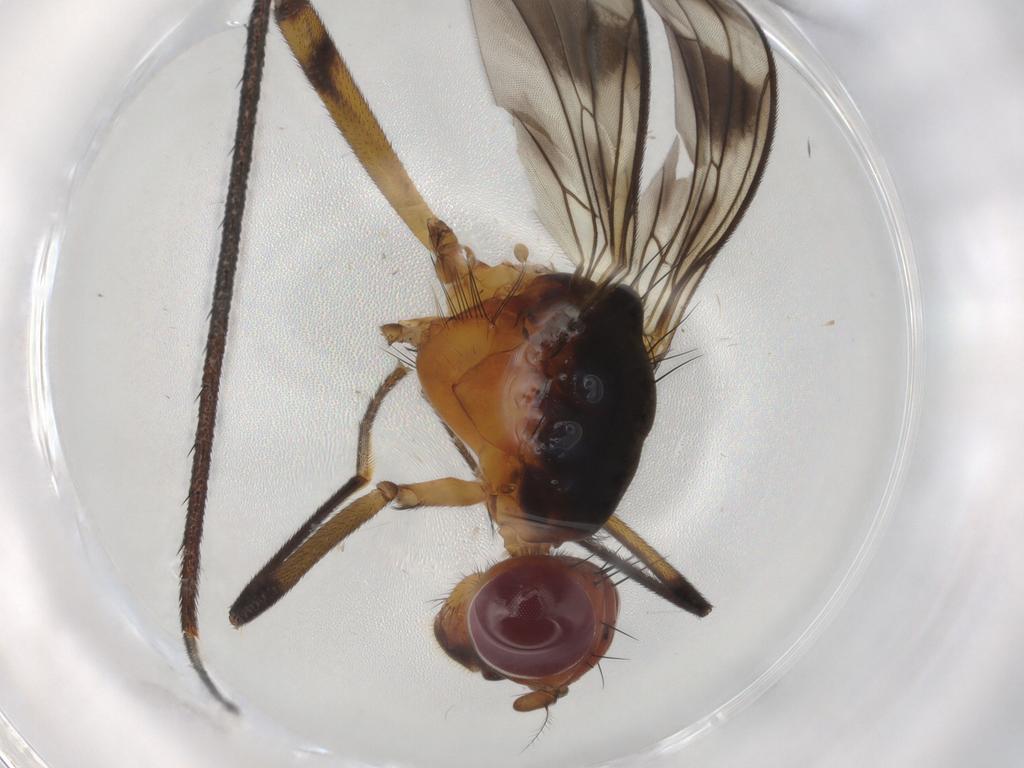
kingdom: Animalia
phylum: Arthropoda
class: Insecta
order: Diptera
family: Micropezidae
